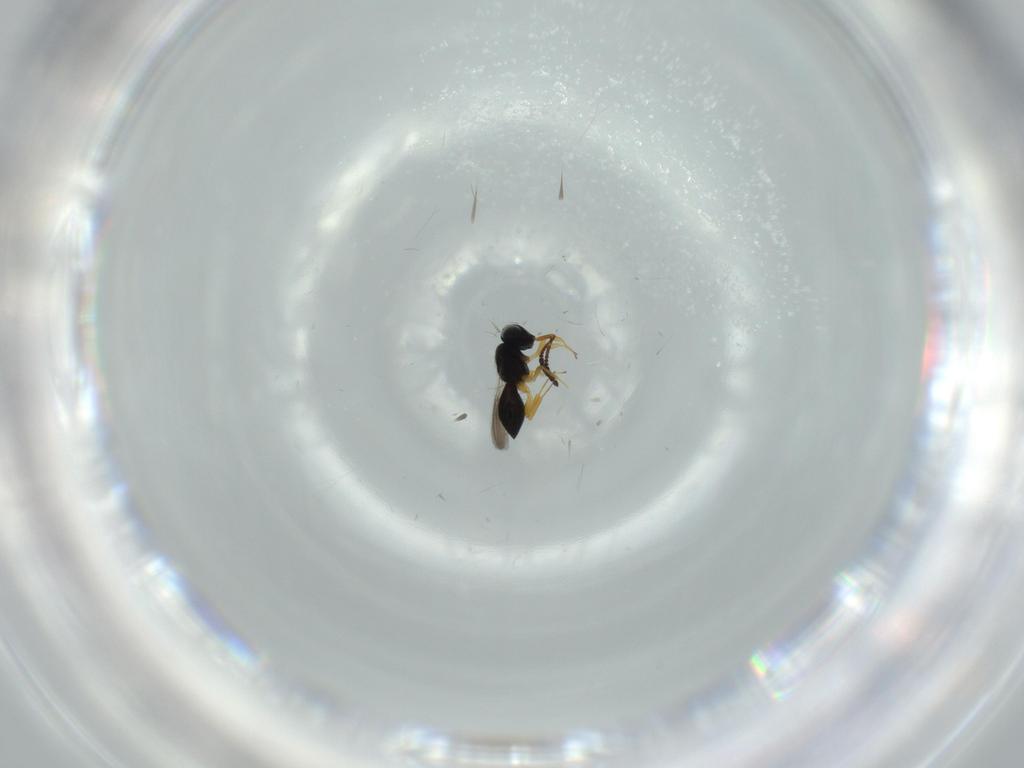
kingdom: Animalia
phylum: Arthropoda
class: Insecta
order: Hymenoptera
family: Scelionidae
